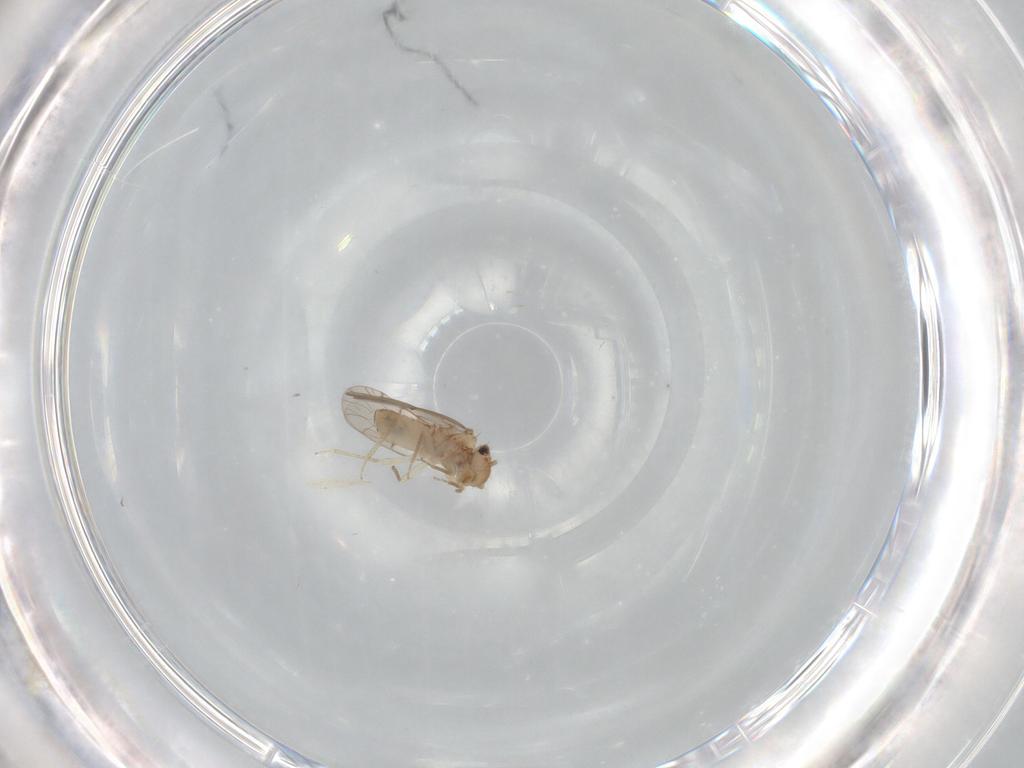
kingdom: Animalia
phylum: Arthropoda
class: Insecta
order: Psocodea
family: Ectopsocidae
